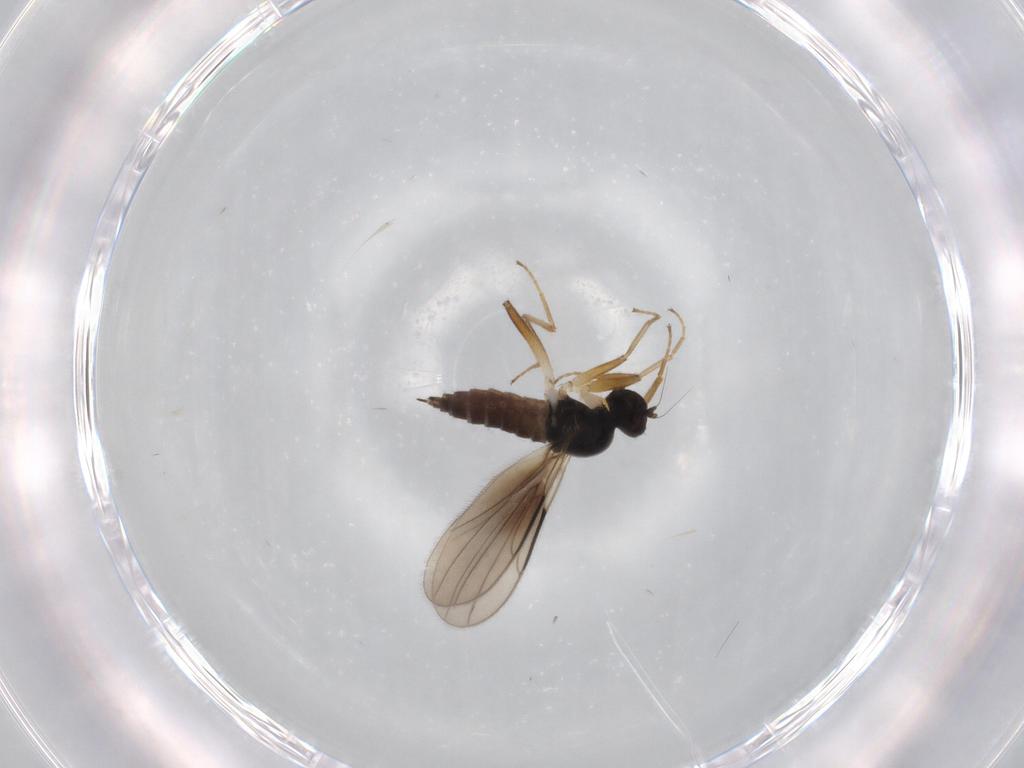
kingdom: Animalia
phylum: Arthropoda
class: Insecta
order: Diptera
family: Hybotidae
